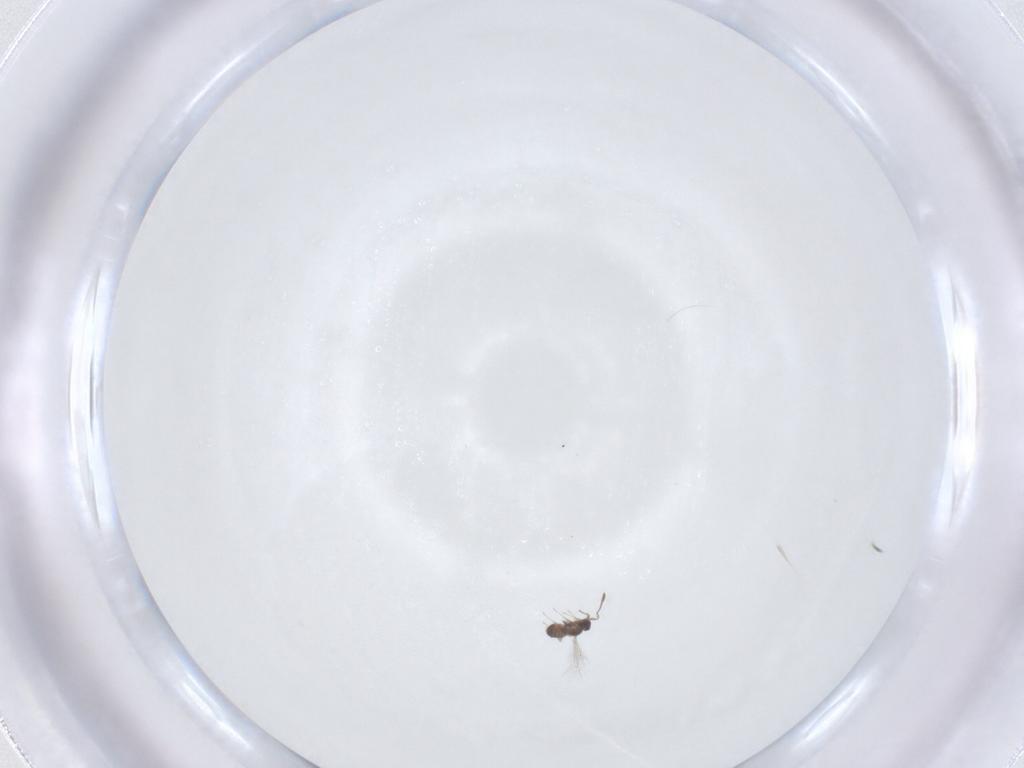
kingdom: Animalia
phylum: Arthropoda
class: Insecta
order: Hymenoptera
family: Mymaridae
